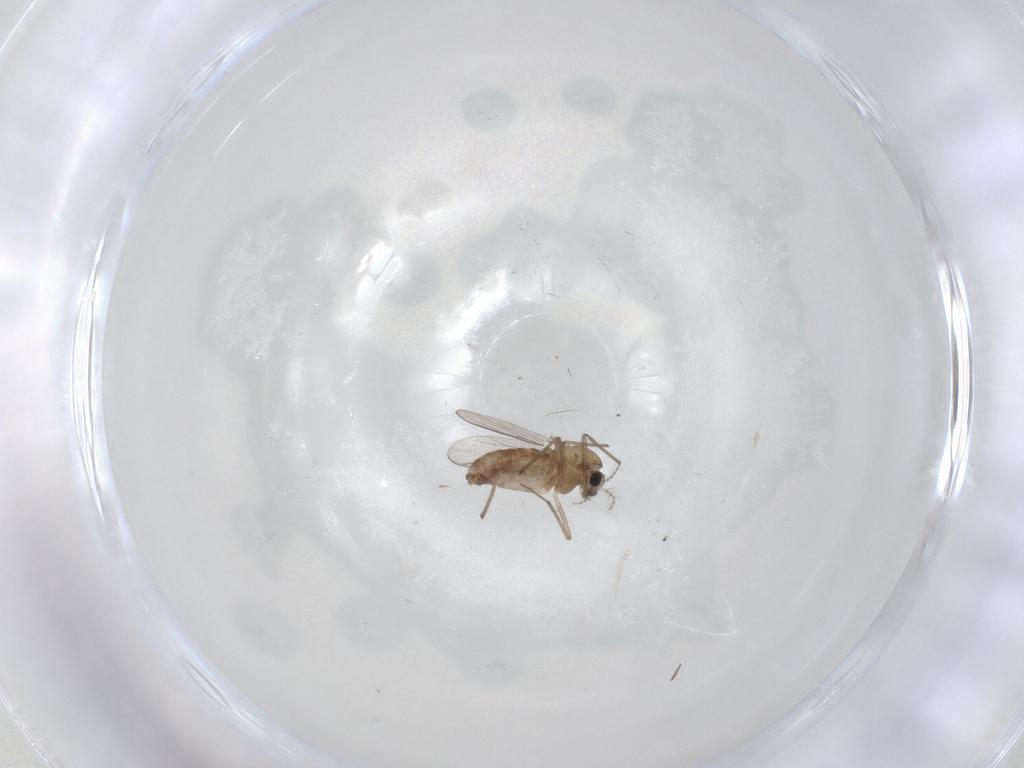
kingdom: Animalia
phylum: Arthropoda
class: Insecta
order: Diptera
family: Chironomidae
